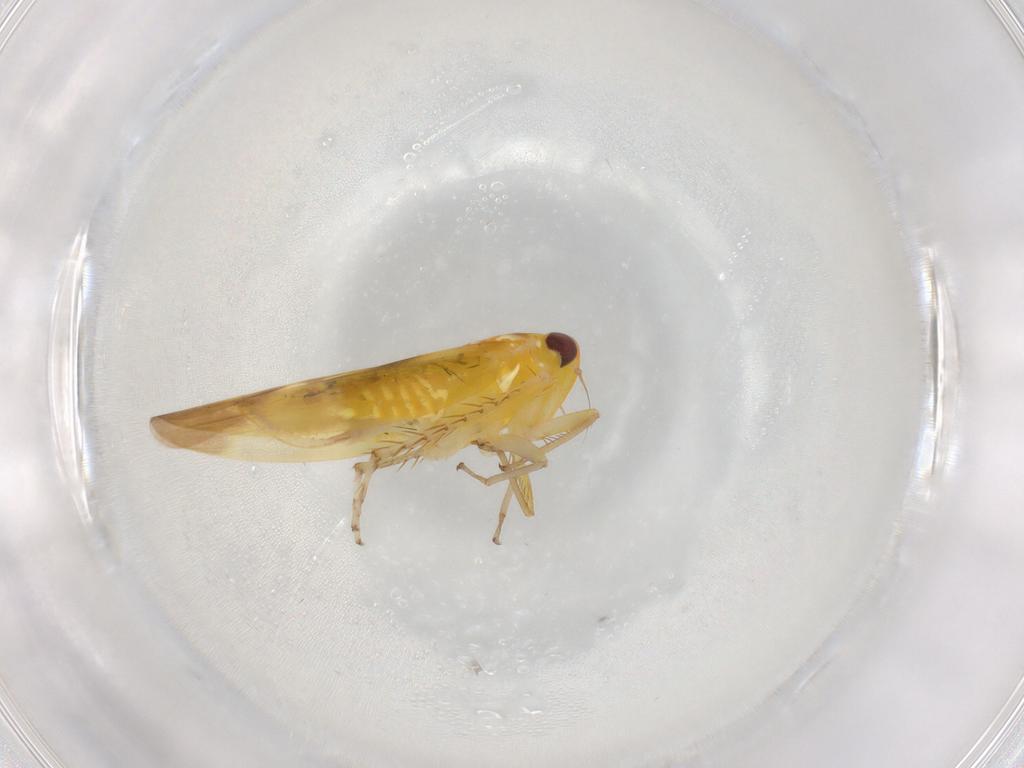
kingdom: Animalia
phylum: Arthropoda
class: Insecta
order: Hemiptera
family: Cicadellidae
